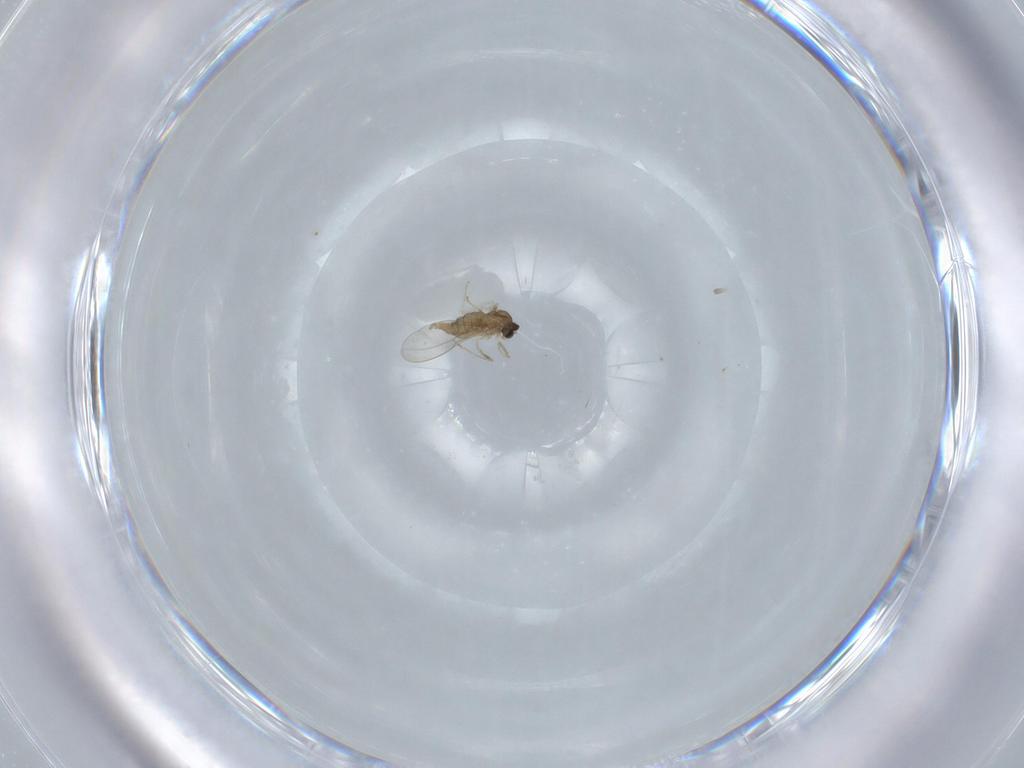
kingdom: Animalia
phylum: Arthropoda
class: Insecta
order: Diptera
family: Cecidomyiidae
